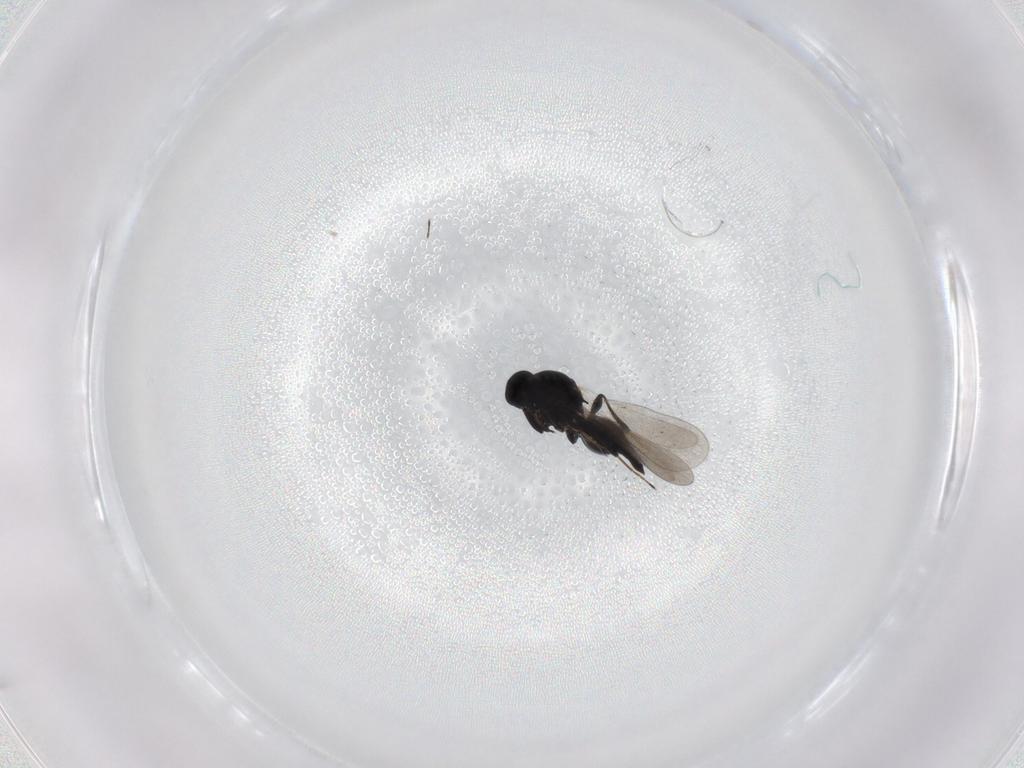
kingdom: Animalia
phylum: Arthropoda
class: Insecta
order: Hymenoptera
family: Platygastridae
